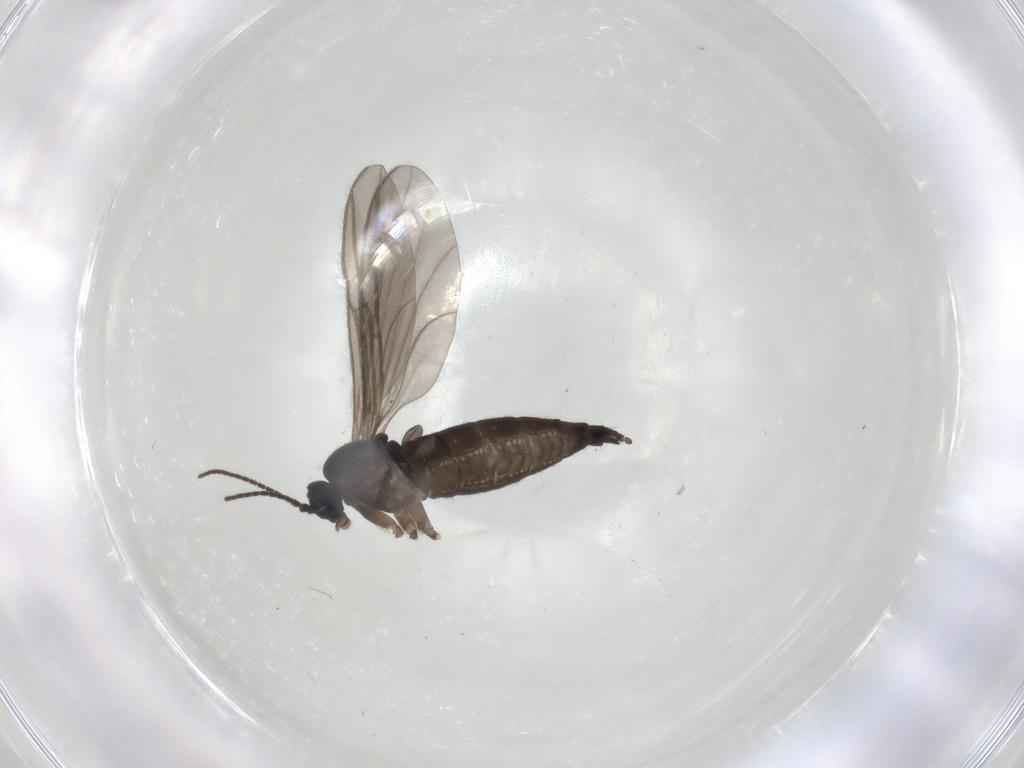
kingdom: Animalia
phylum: Arthropoda
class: Insecta
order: Diptera
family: Sciaridae
